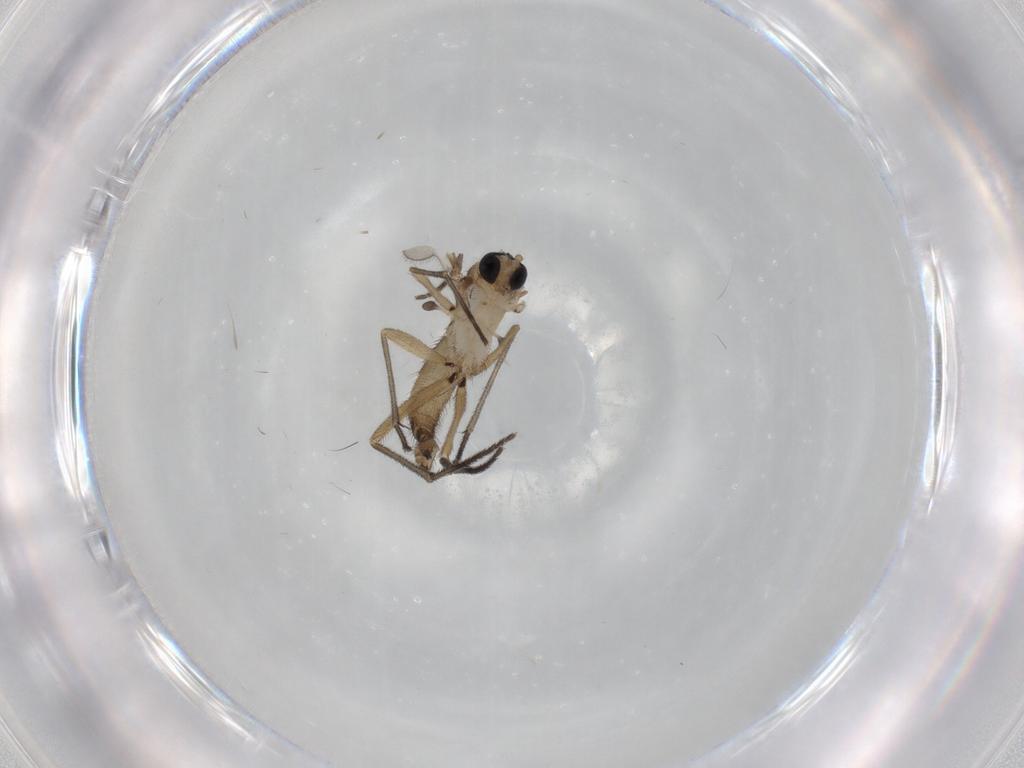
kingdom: Animalia
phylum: Arthropoda
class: Insecta
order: Diptera
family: Sciaridae
